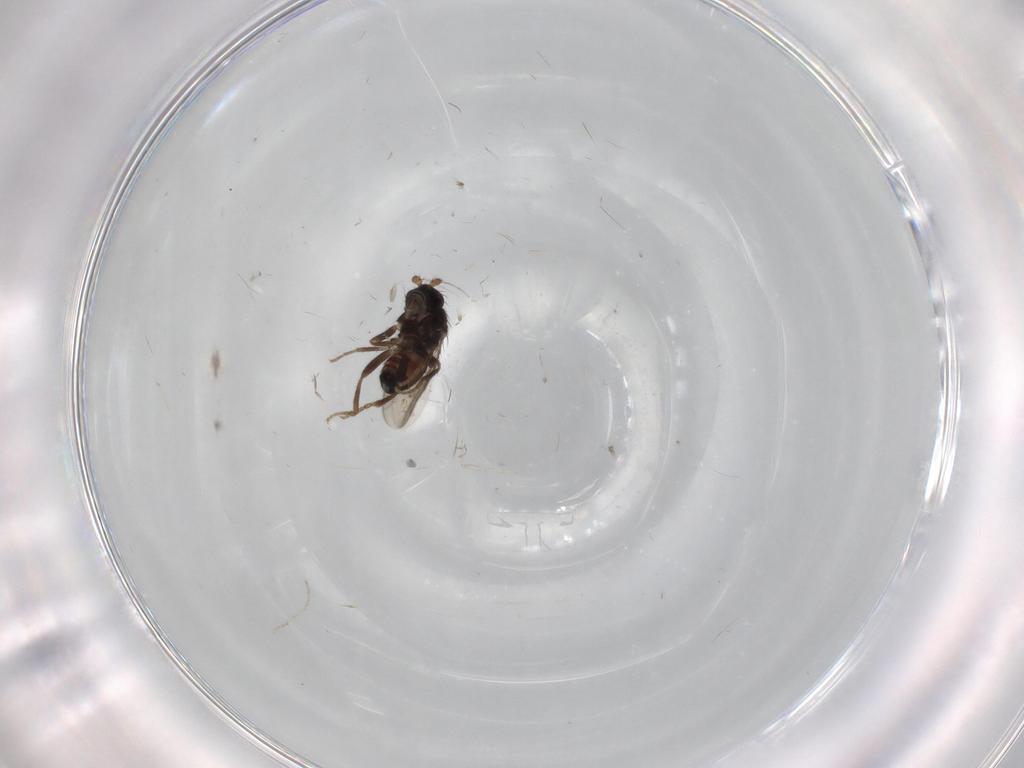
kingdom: Animalia
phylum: Arthropoda
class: Insecta
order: Diptera
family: Sphaeroceridae
